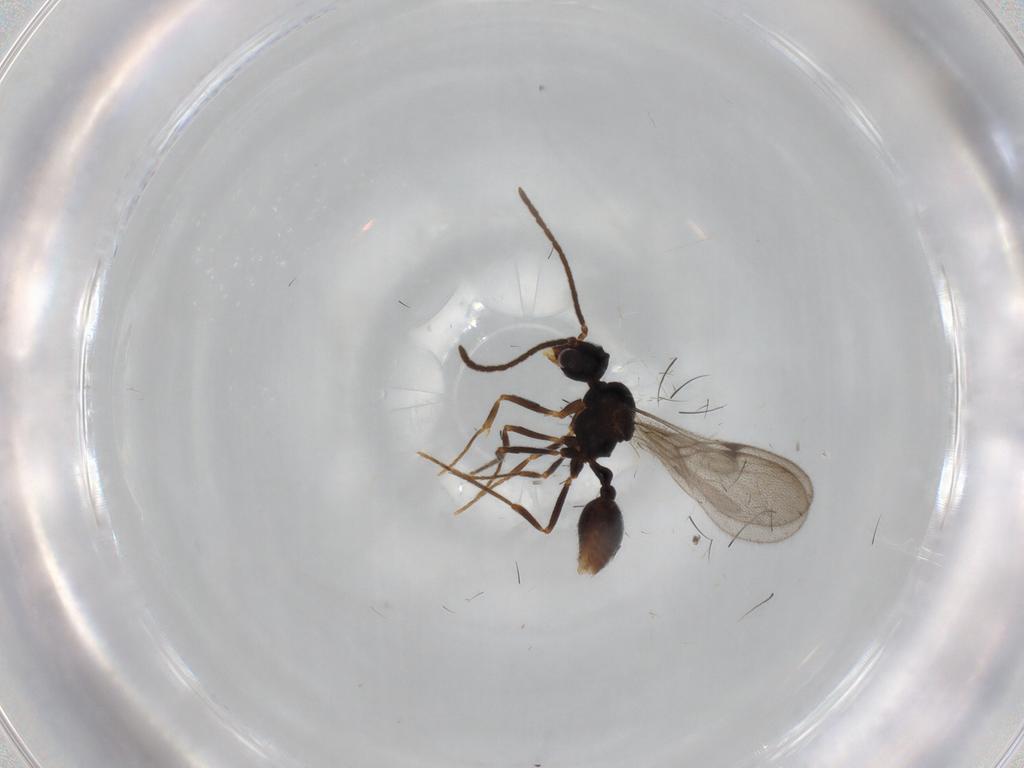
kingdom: Animalia
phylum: Arthropoda
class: Insecta
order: Hymenoptera
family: Formicidae
